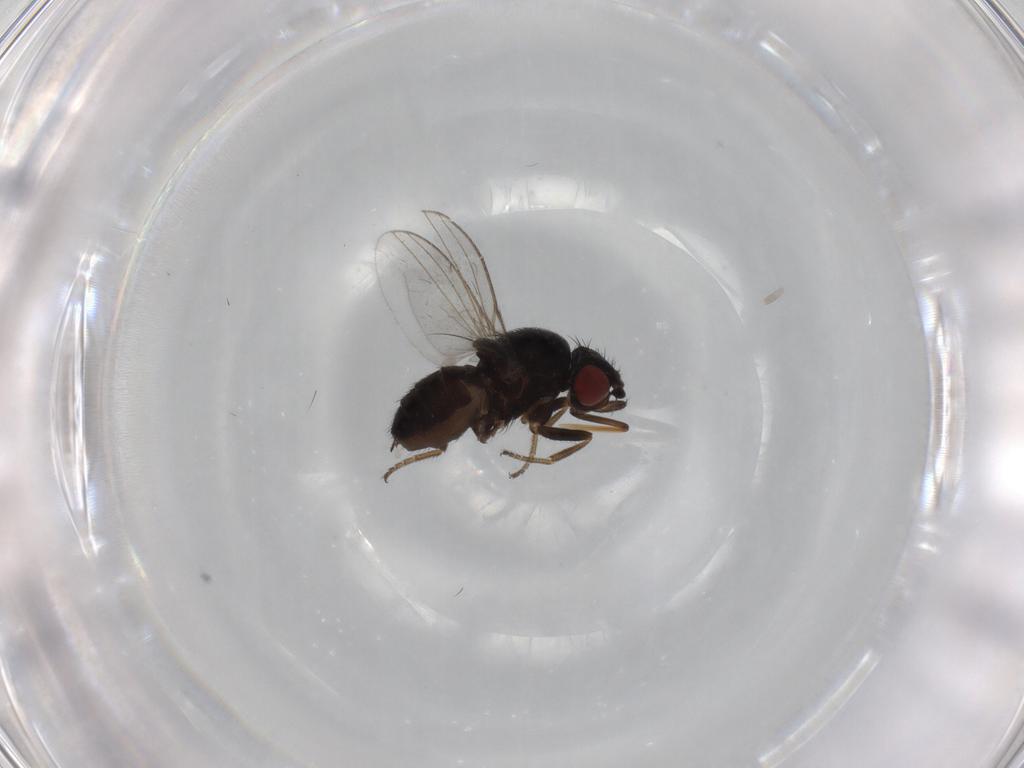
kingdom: Animalia
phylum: Arthropoda
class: Insecta
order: Diptera
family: Milichiidae
